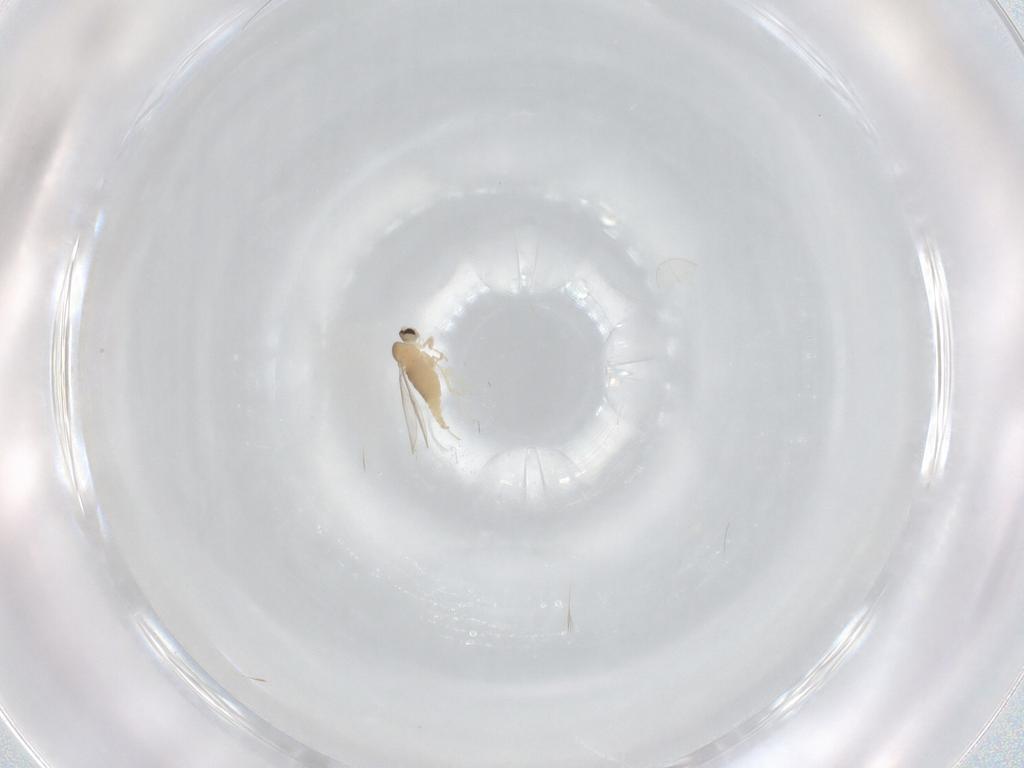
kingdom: Animalia
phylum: Arthropoda
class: Insecta
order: Diptera
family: Cecidomyiidae
